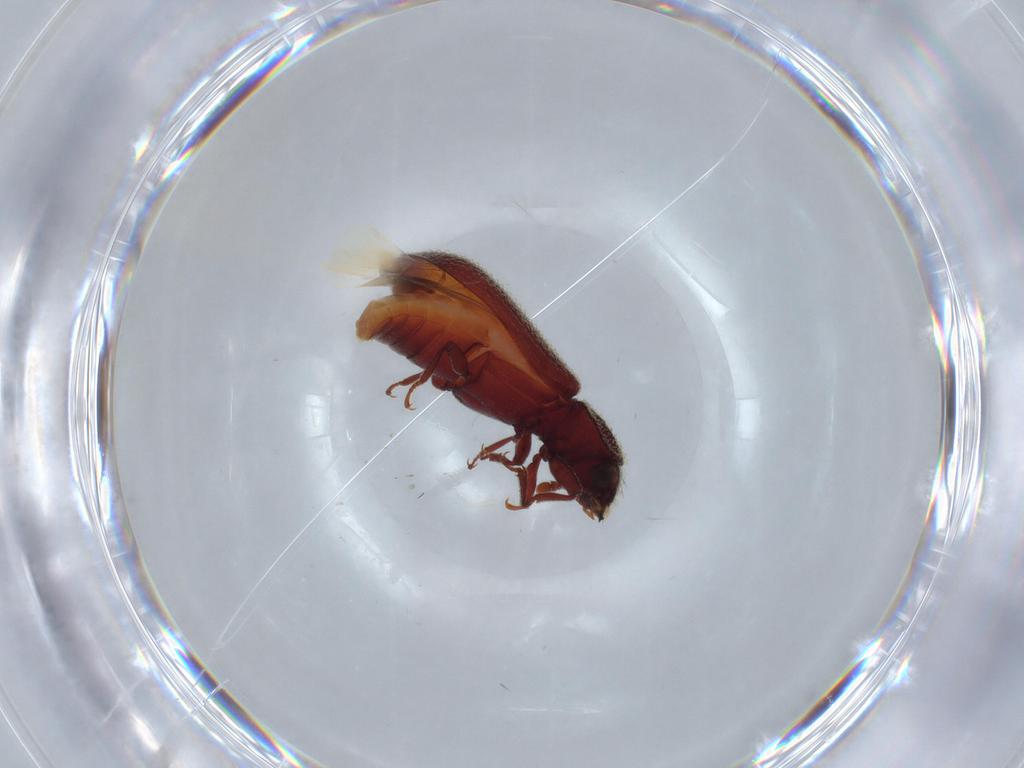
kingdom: Animalia
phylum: Arthropoda
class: Insecta
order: Coleoptera
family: Cerambycidae
